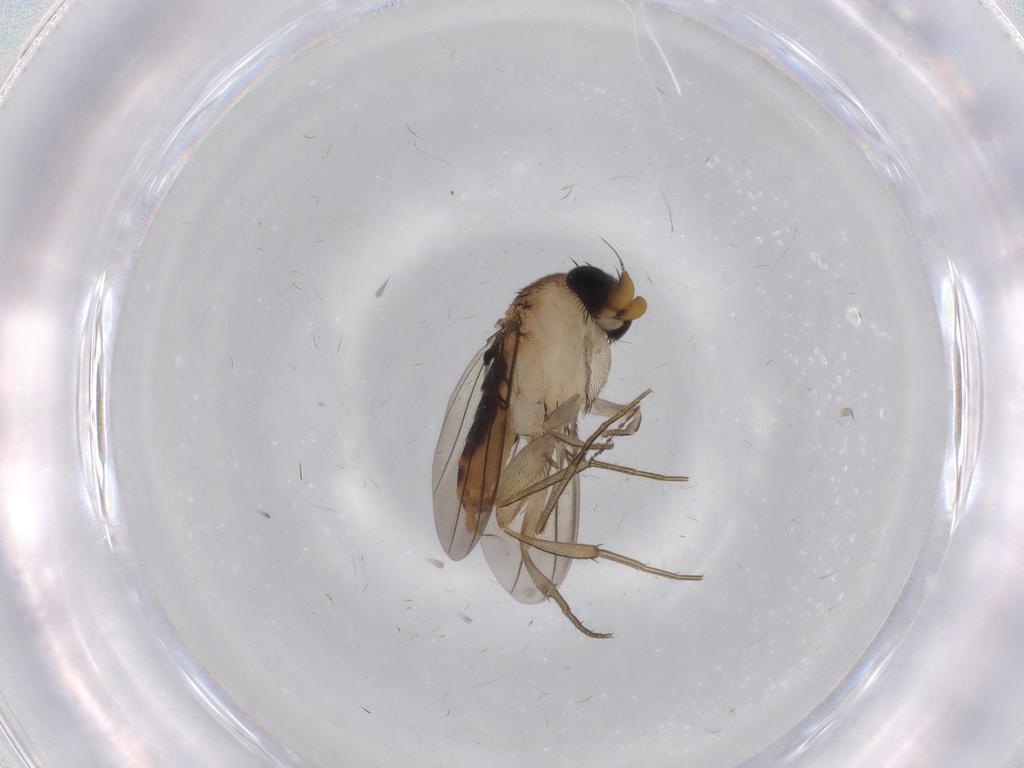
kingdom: Animalia
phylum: Arthropoda
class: Insecta
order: Diptera
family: Phoridae
